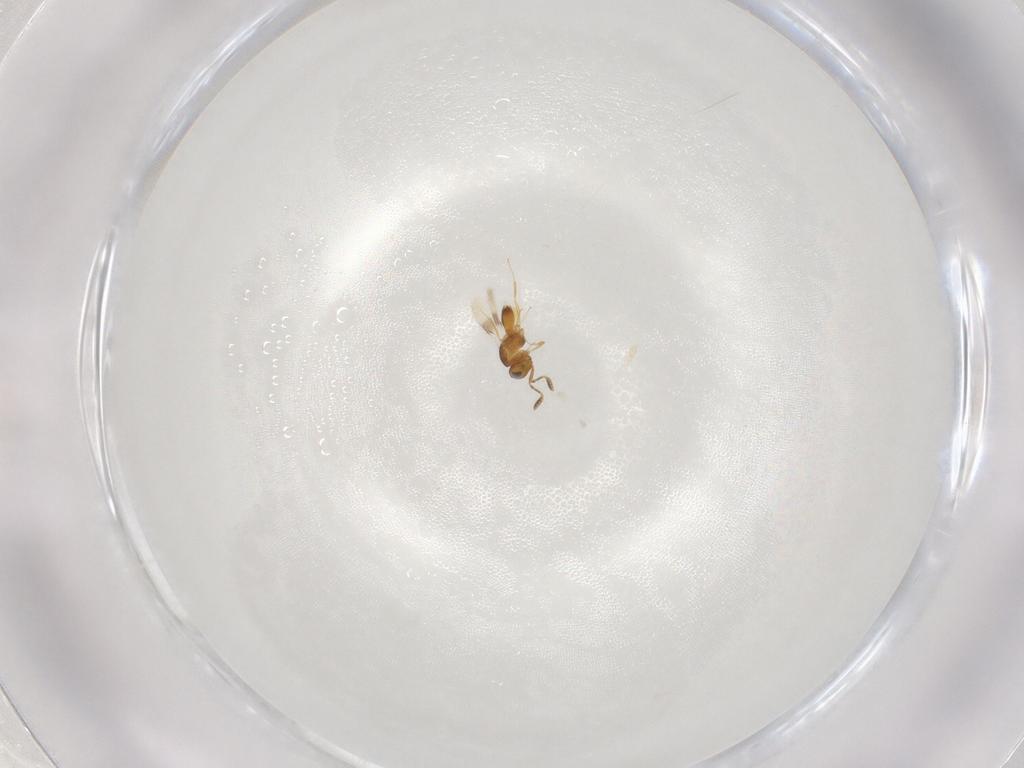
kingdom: Animalia
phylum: Arthropoda
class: Insecta
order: Hymenoptera
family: Scelionidae
